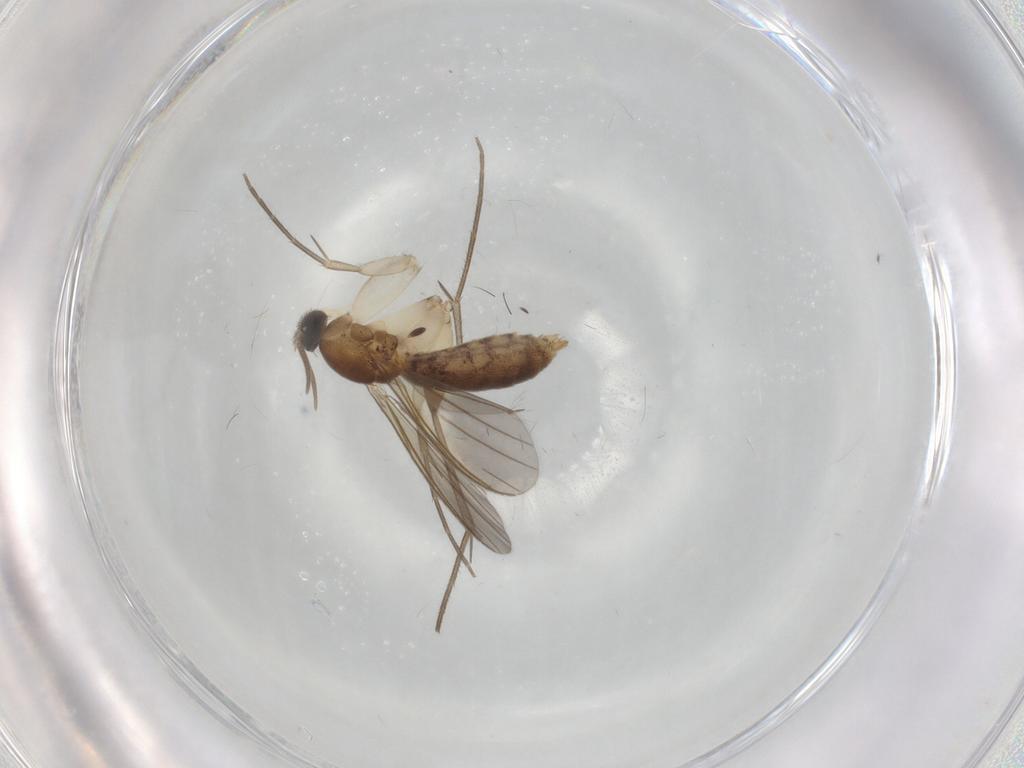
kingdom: Animalia
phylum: Arthropoda
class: Insecta
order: Diptera
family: Mycetophilidae
